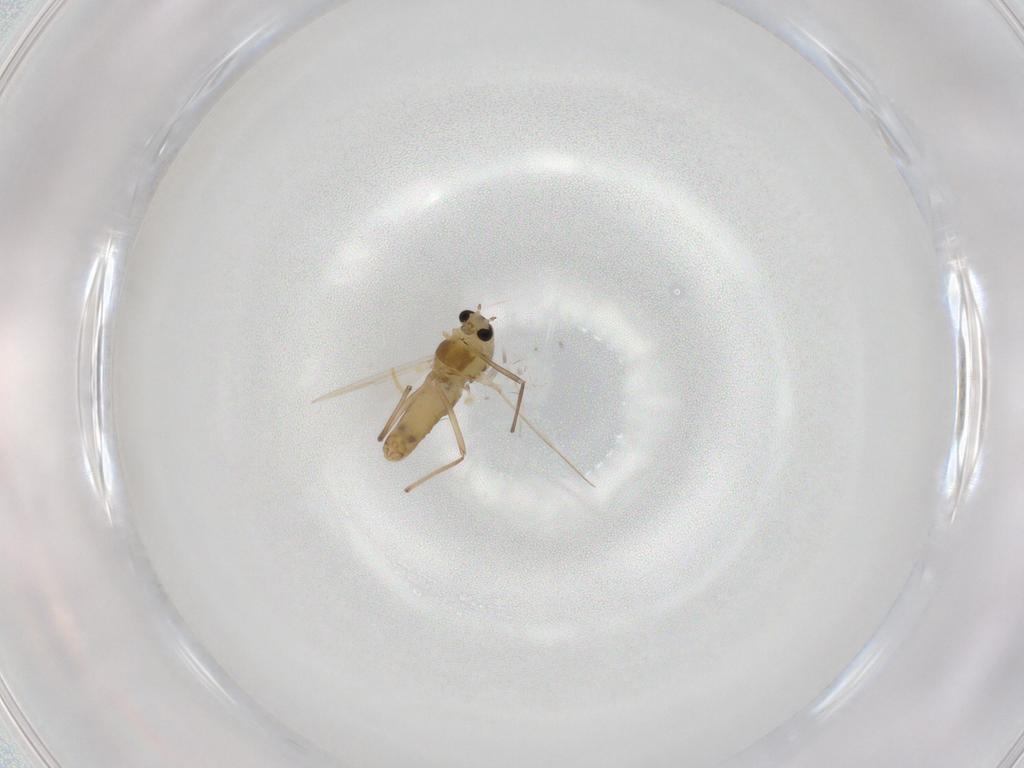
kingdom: Animalia
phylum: Arthropoda
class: Insecta
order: Diptera
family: Chironomidae
